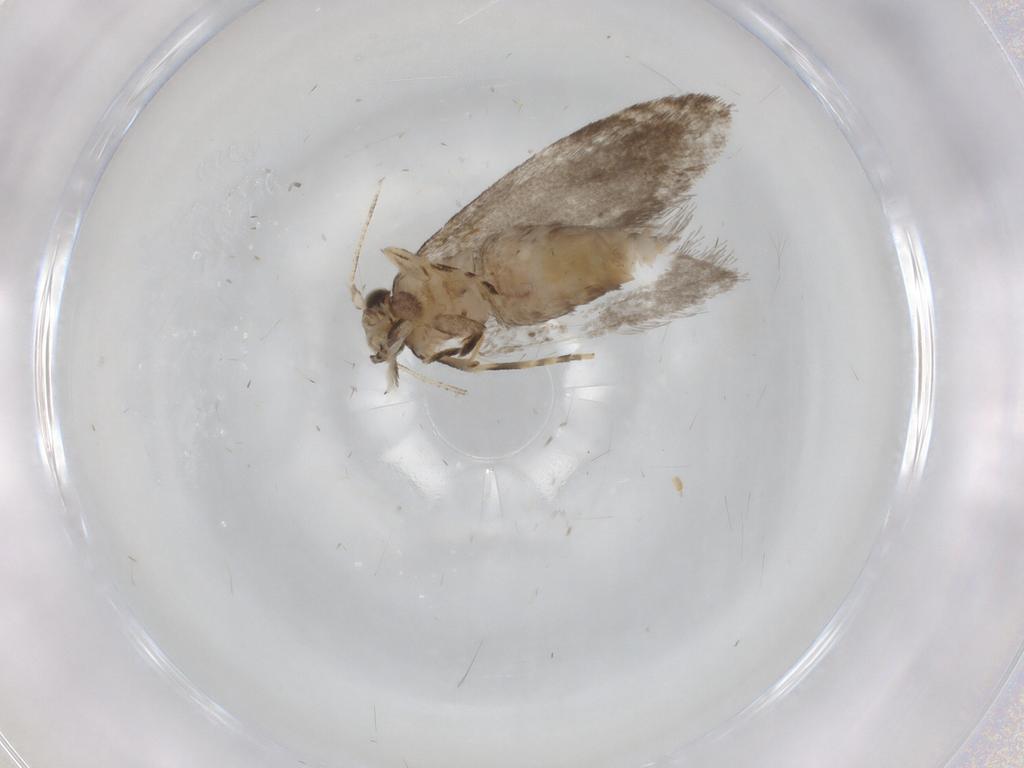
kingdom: Animalia
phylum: Arthropoda
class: Insecta
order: Lepidoptera
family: Tineidae
